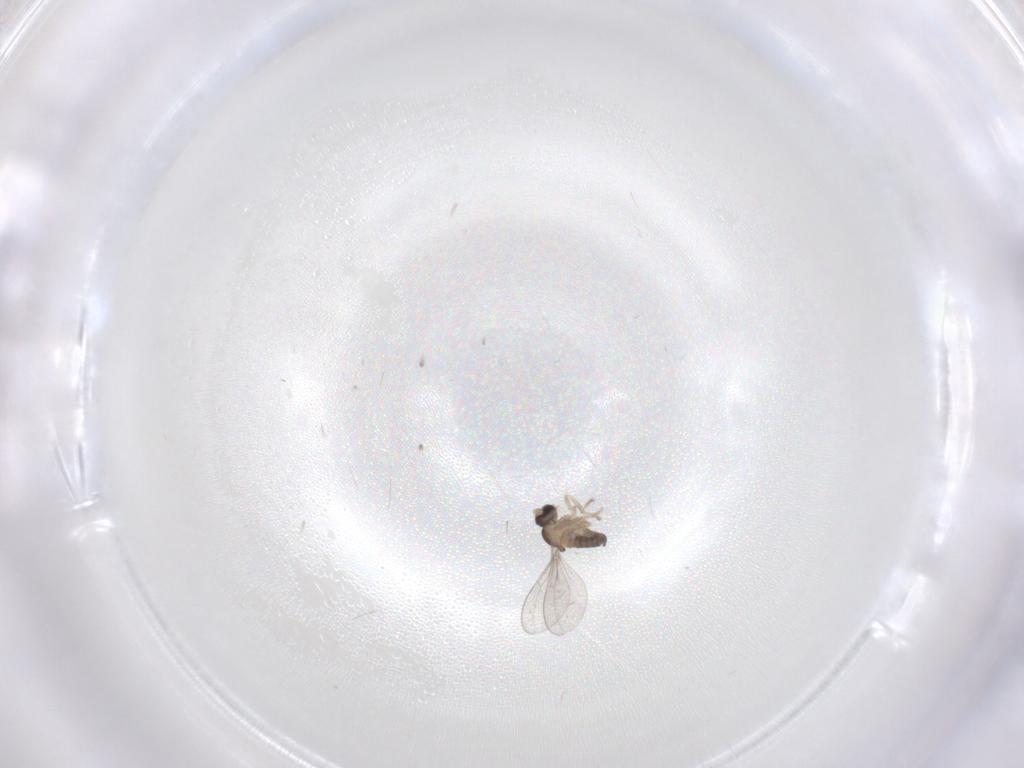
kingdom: Animalia
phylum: Arthropoda
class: Insecta
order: Diptera
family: Cecidomyiidae
